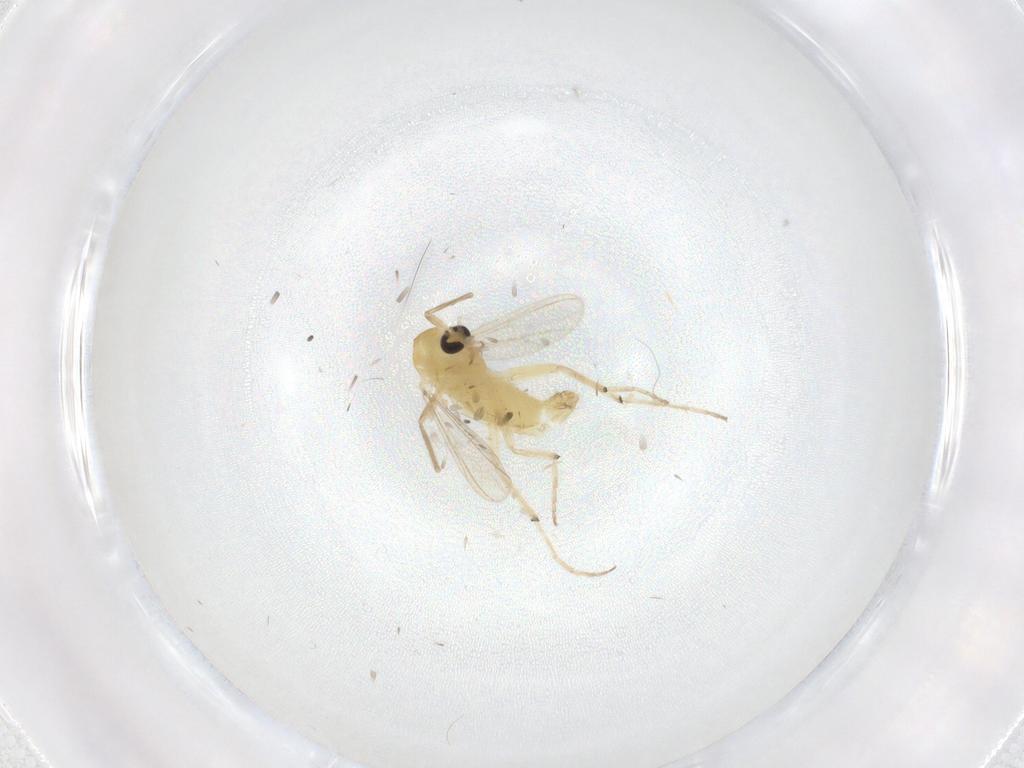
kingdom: Animalia
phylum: Arthropoda
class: Insecta
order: Diptera
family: Chironomidae
